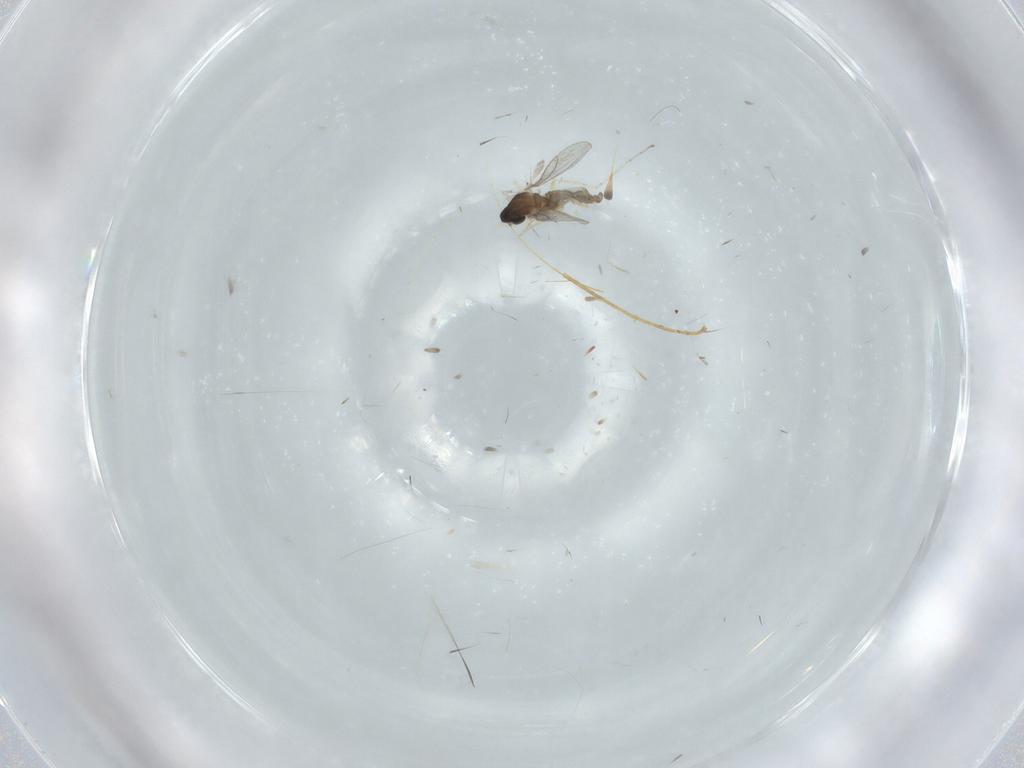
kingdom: Animalia
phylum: Arthropoda
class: Insecta
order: Diptera
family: Cecidomyiidae
